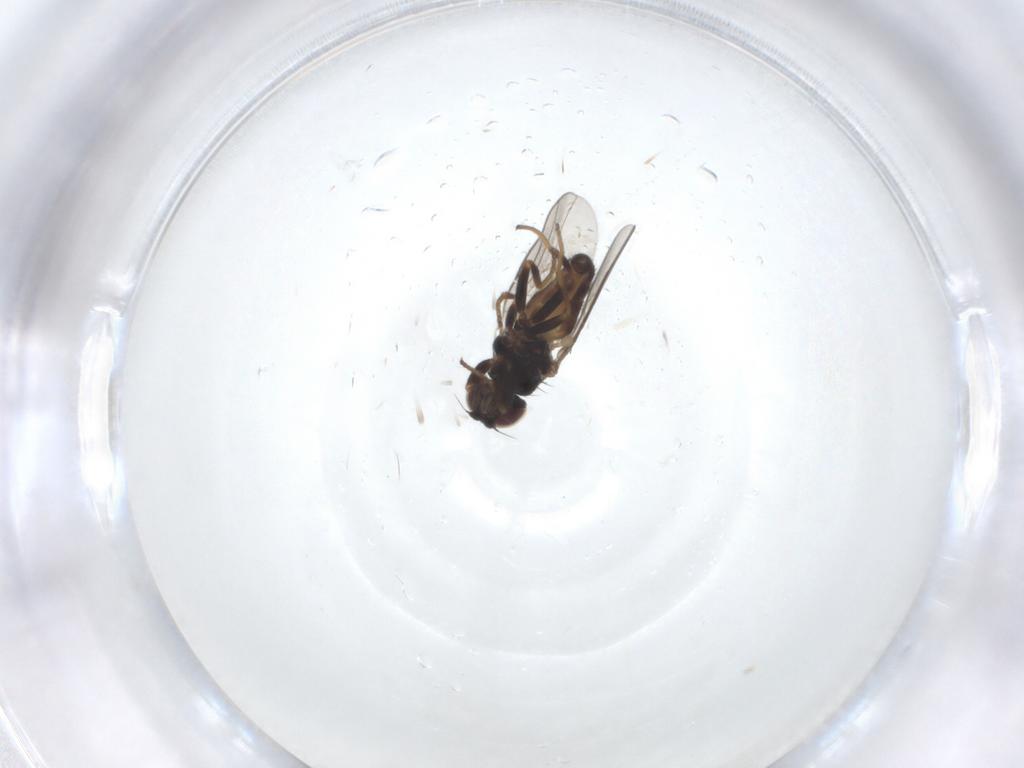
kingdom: Animalia
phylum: Arthropoda
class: Insecta
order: Diptera
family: Chloropidae
